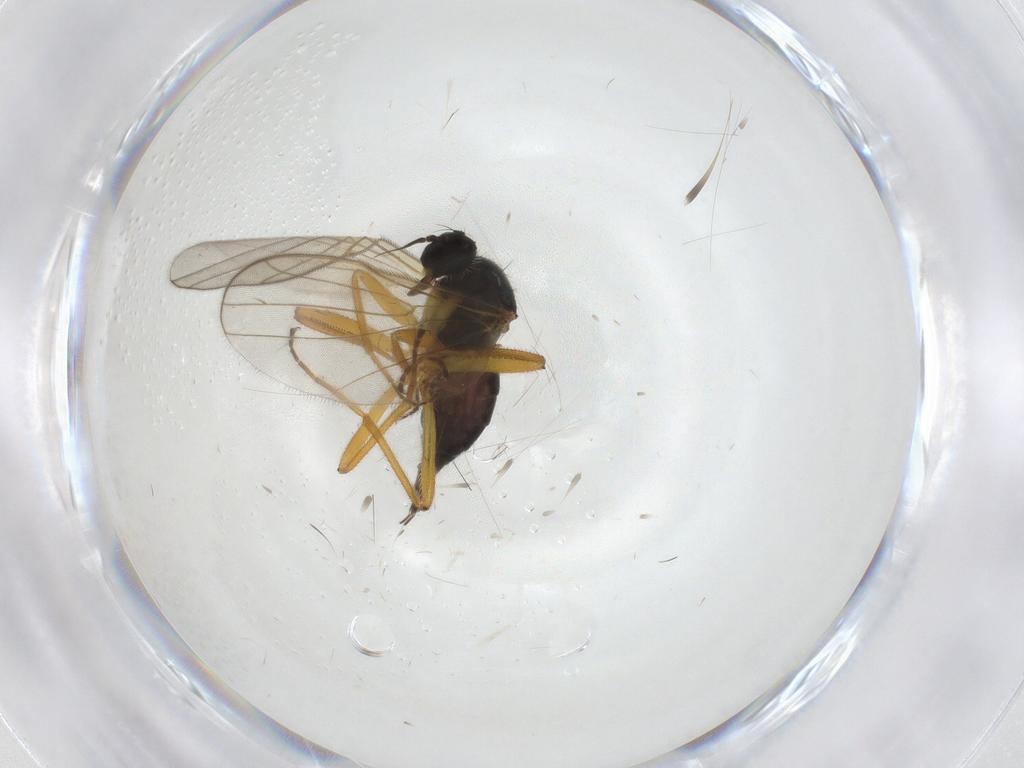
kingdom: Animalia
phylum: Arthropoda
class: Insecta
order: Diptera
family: Hybotidae
